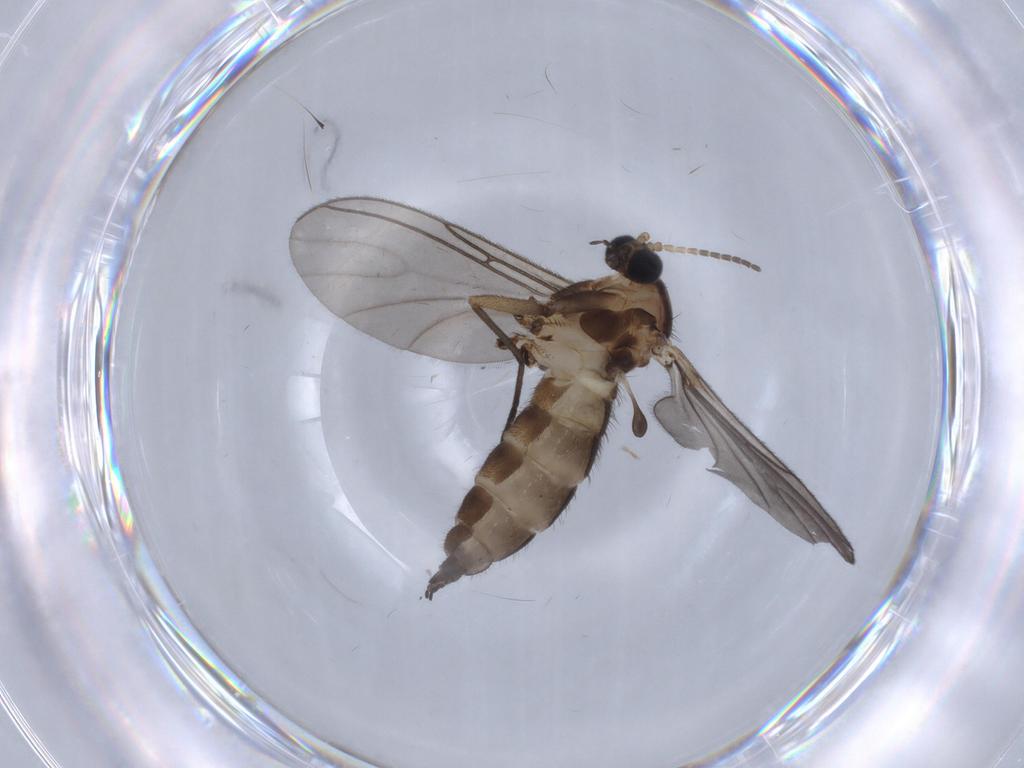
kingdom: Animalia
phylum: Arthropoda
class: Insecta
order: Diptera
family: Sciaridae
